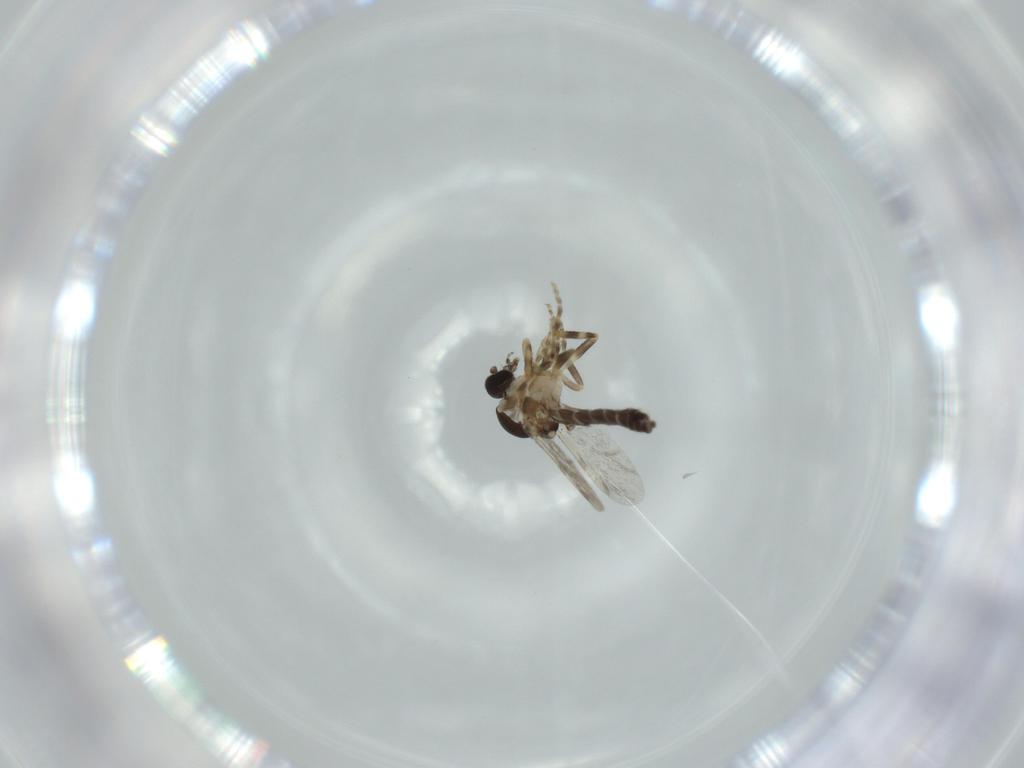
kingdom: Animalia
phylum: Arthropoda
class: Insecta
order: Diptera
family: Ceratopogonidae
